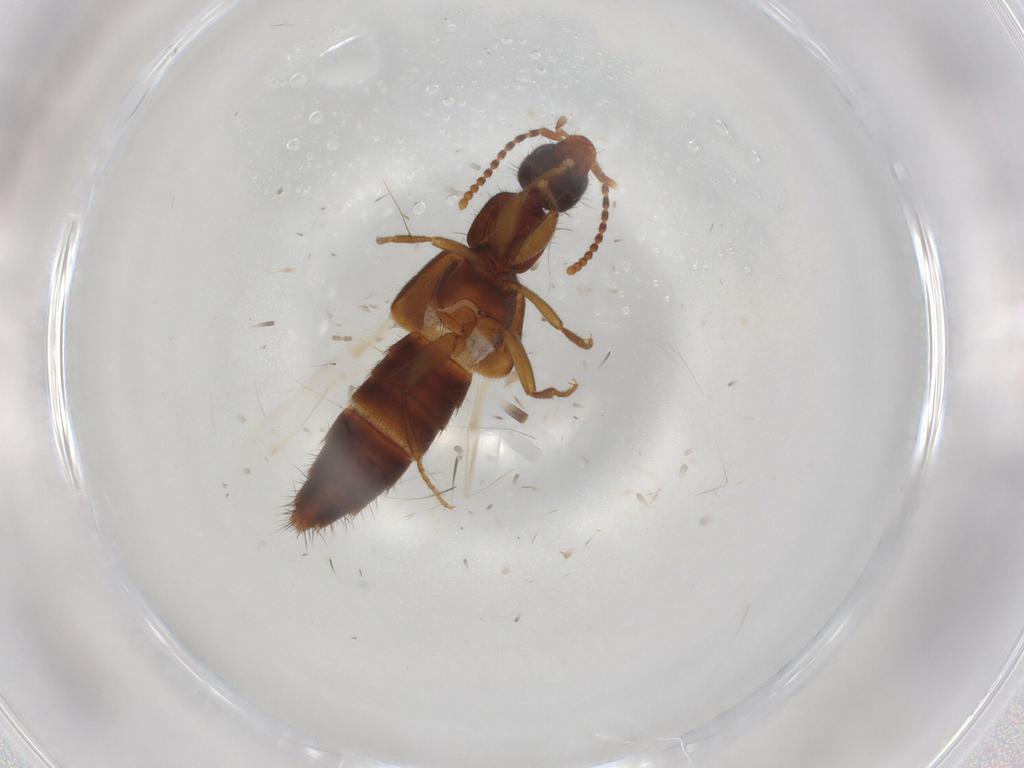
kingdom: Animalia
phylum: Arthropoda
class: Insecta
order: Coleoptera
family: Staphylinidae
